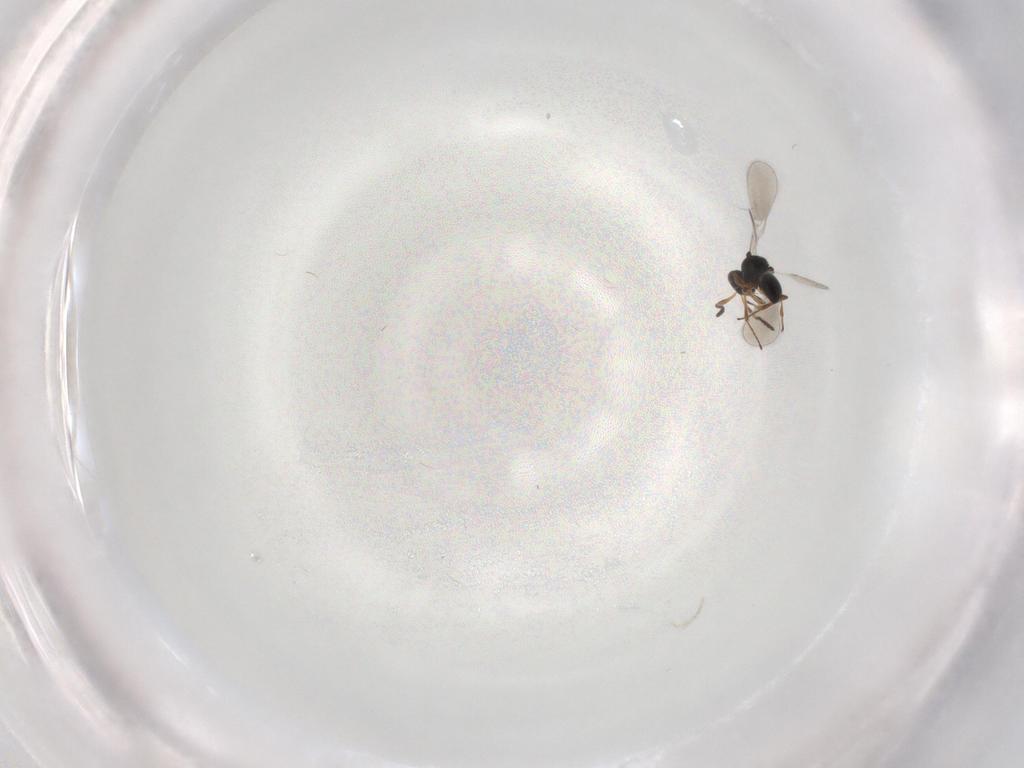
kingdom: Animalia
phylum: Arthropoda
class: Insecta
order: Hymenoptera
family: Platygastridae
